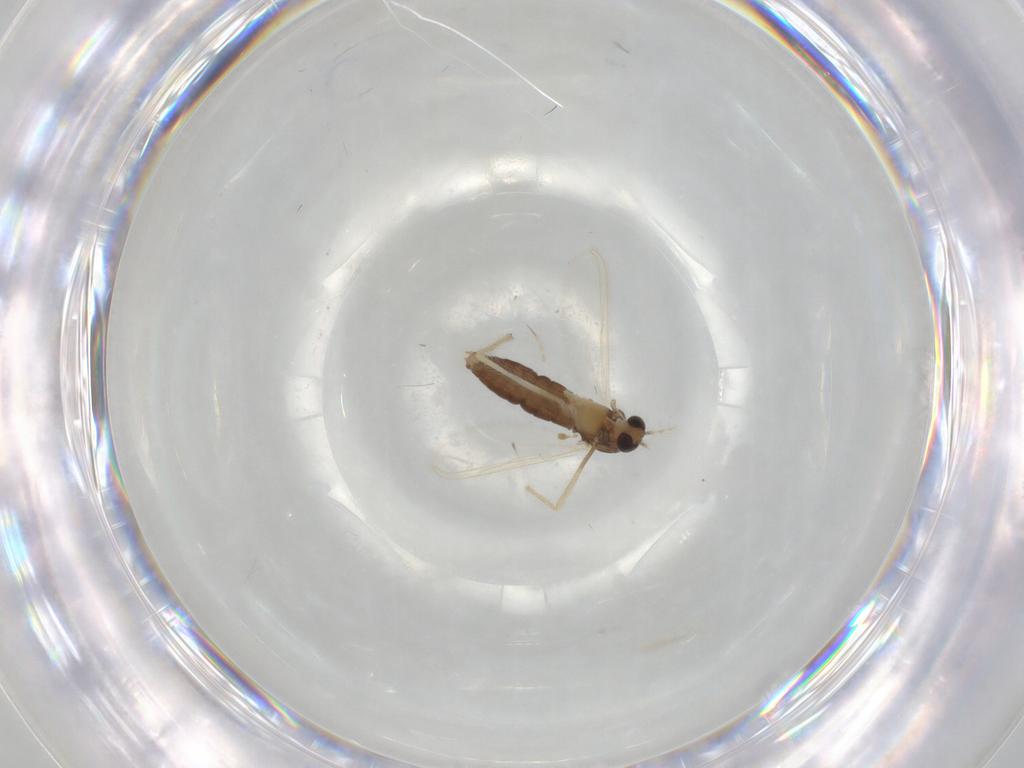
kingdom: Animalia
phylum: Arthropoda
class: Insecta
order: Diptera
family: Chironomidae
